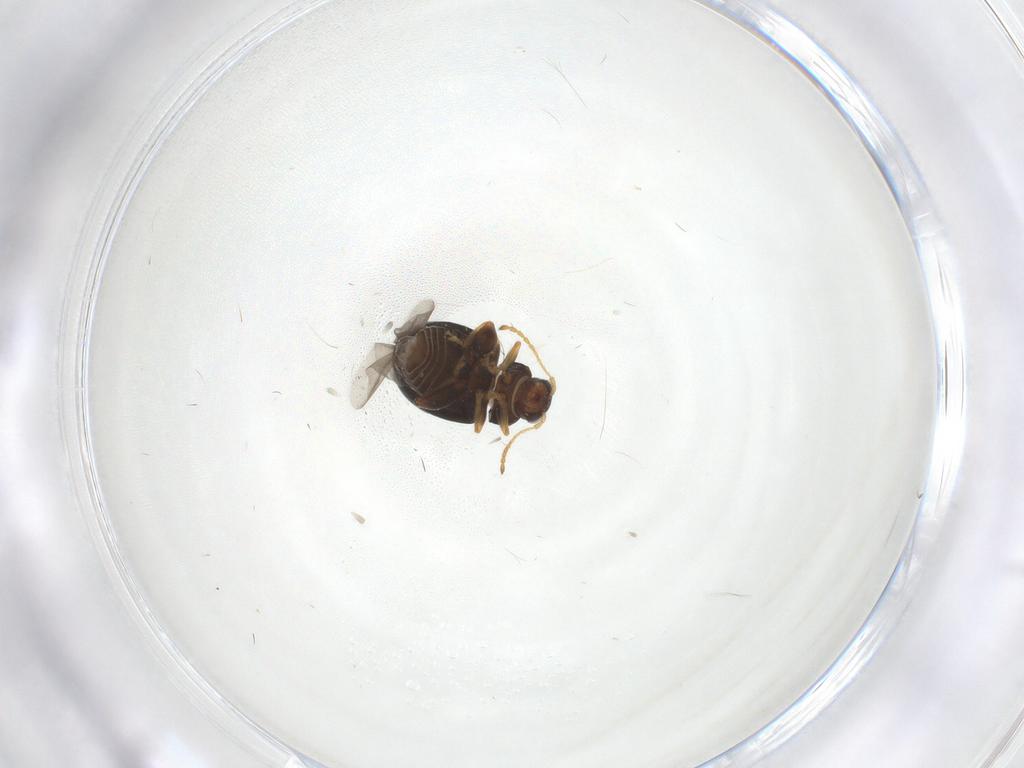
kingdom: Animalia
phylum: Arthropoda
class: Insecta
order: Coleoptera
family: Chrysomelidae
